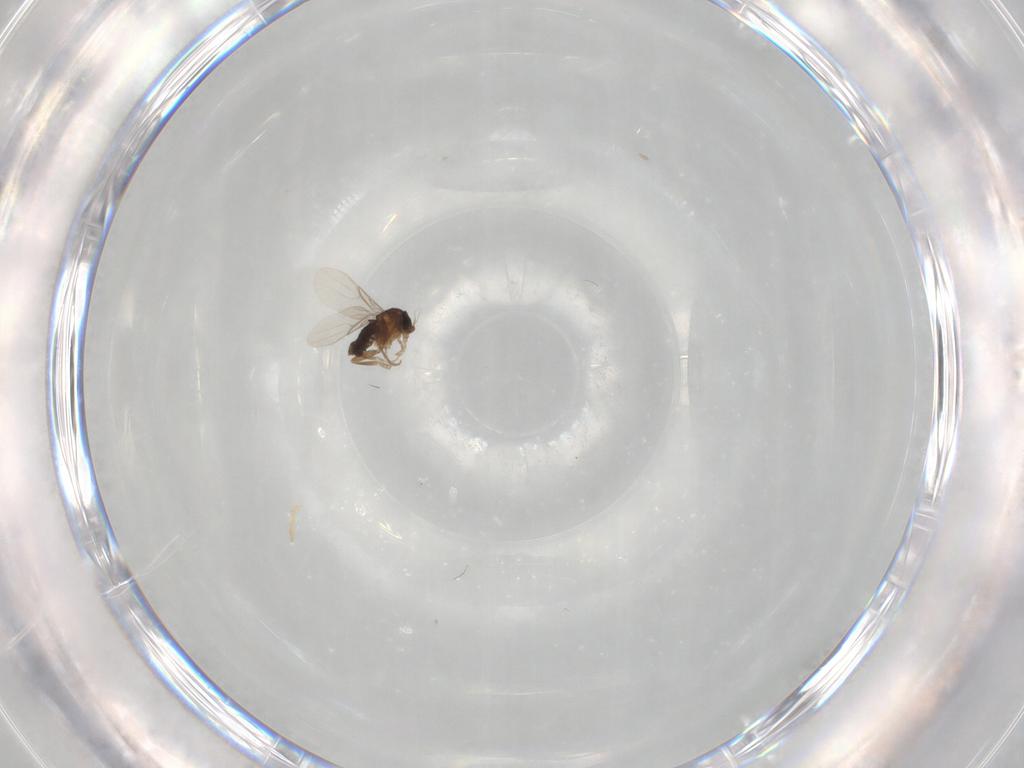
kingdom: Animalia
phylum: Arthropoda
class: Insecta
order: Diptera
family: Phoridae
